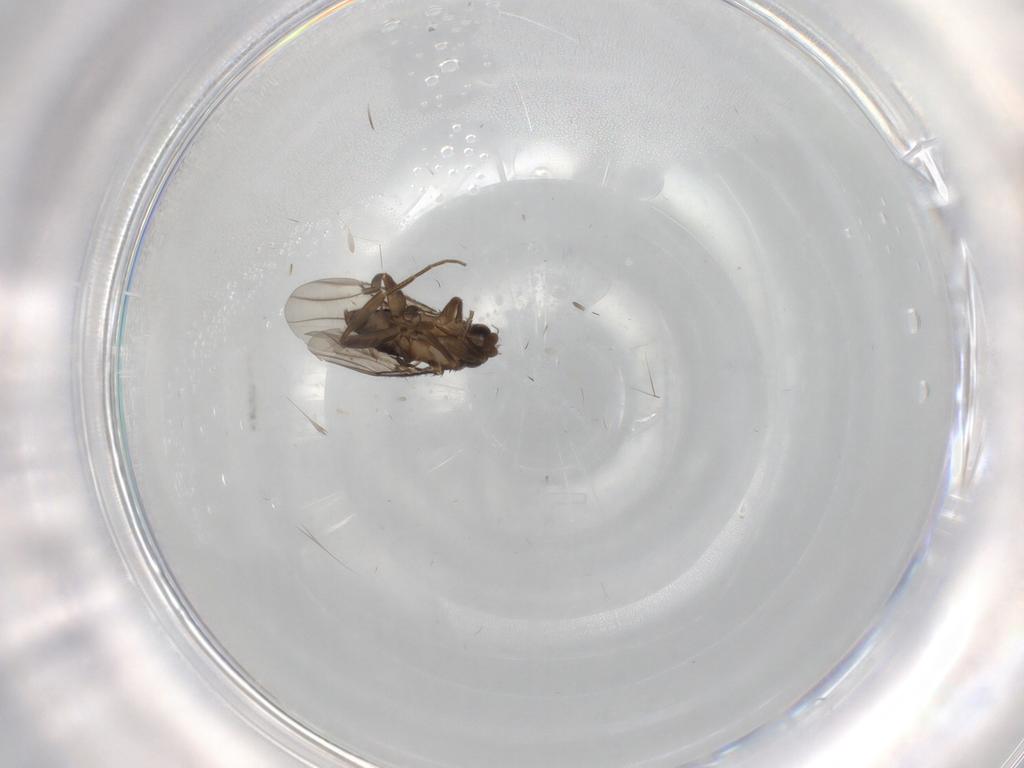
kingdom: Animalia
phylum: Arthropoda
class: Insecta
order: Diptera
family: Phoridae
